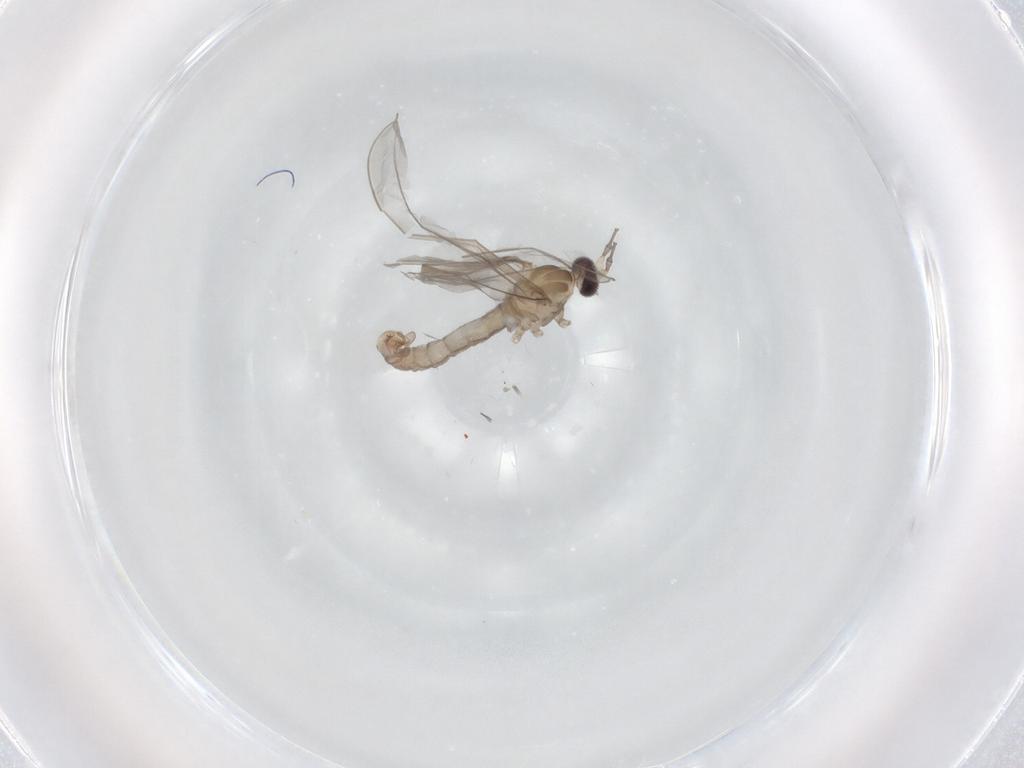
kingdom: Animalia
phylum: Arthropoda
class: Insecta
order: Diptera
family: Cecidomyiidae
